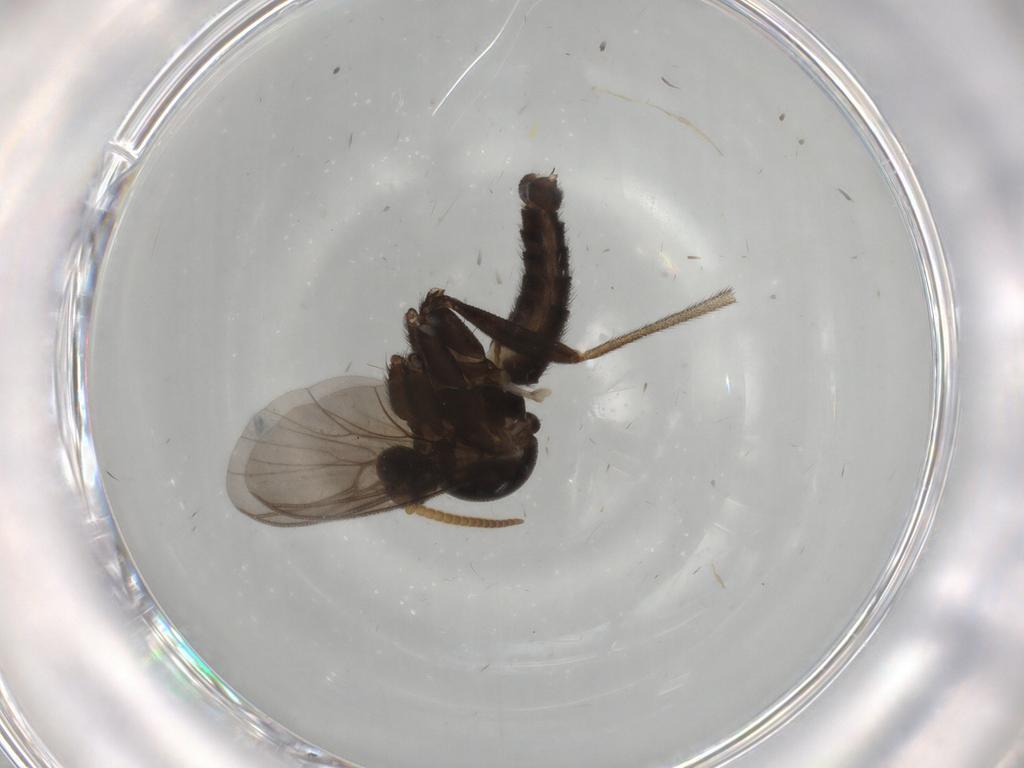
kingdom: Animalia
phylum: Arthropoda
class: Insecta
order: Diptera
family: Mycetophilidae
